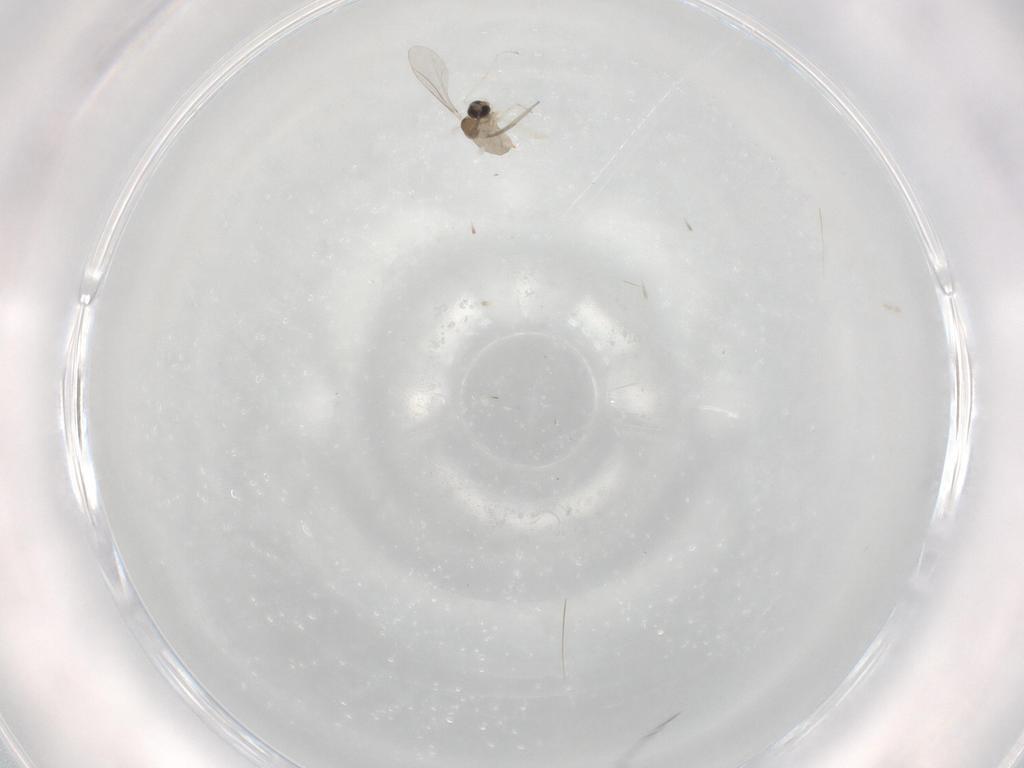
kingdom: Animalia
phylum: Arthropoda
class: Insecta
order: Diptera
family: Cecidomyiidae
